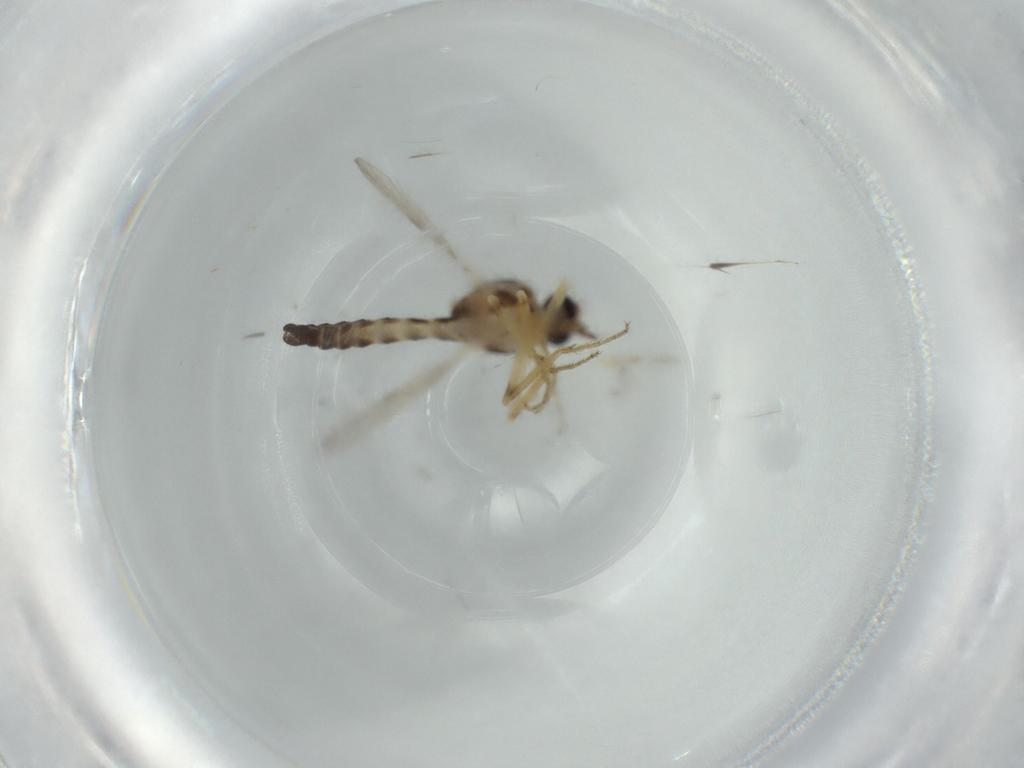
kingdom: Animalia
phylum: Arthropoda
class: Insecta
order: Diptera
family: Ceratopogonidae
